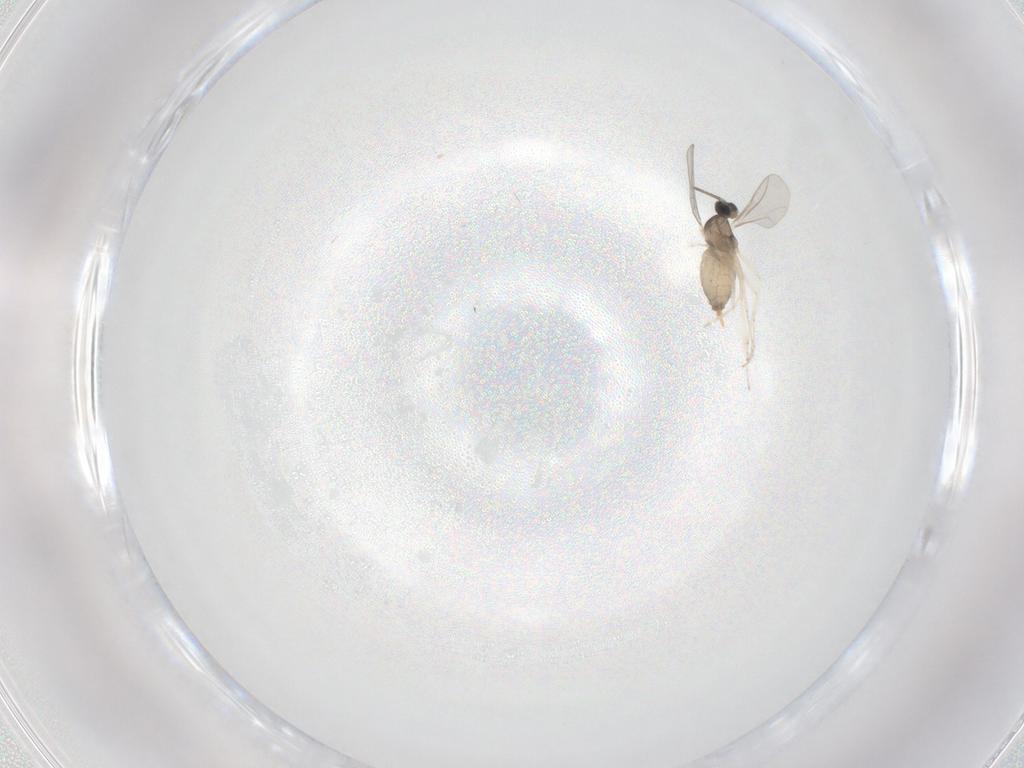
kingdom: Animalia
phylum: Arthropoda
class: Insecta
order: Diptera
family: Cecidomyiidae
